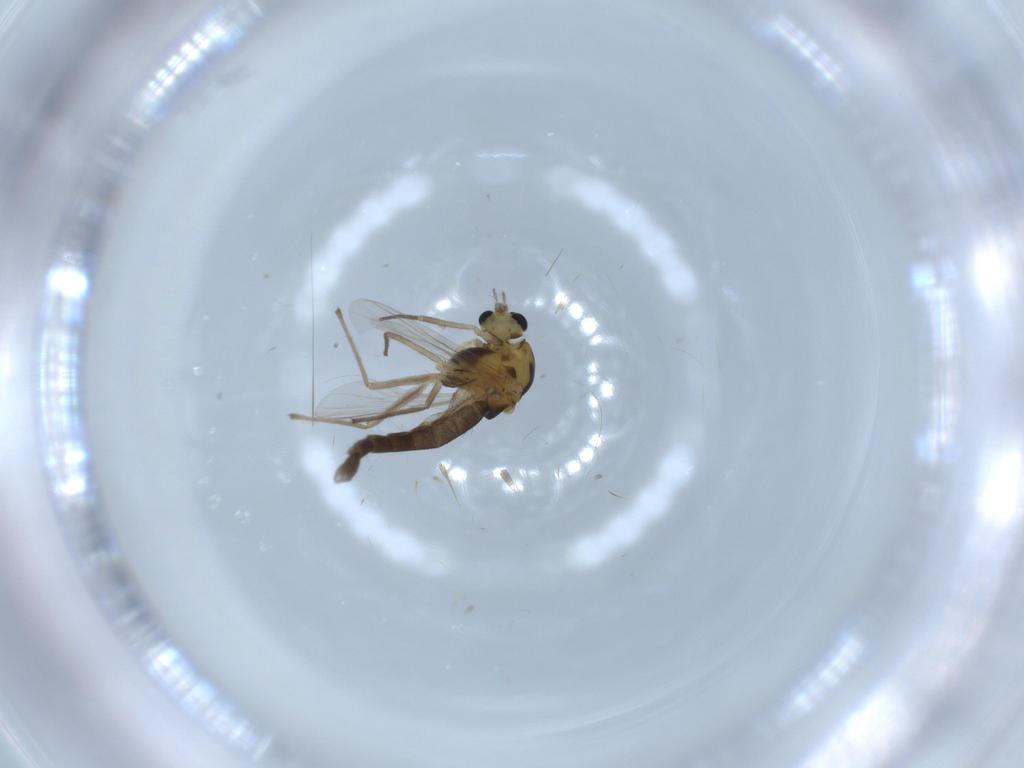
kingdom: Animalia
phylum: Arthropoda
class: Insecta
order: Diptera
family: Chironomidae
